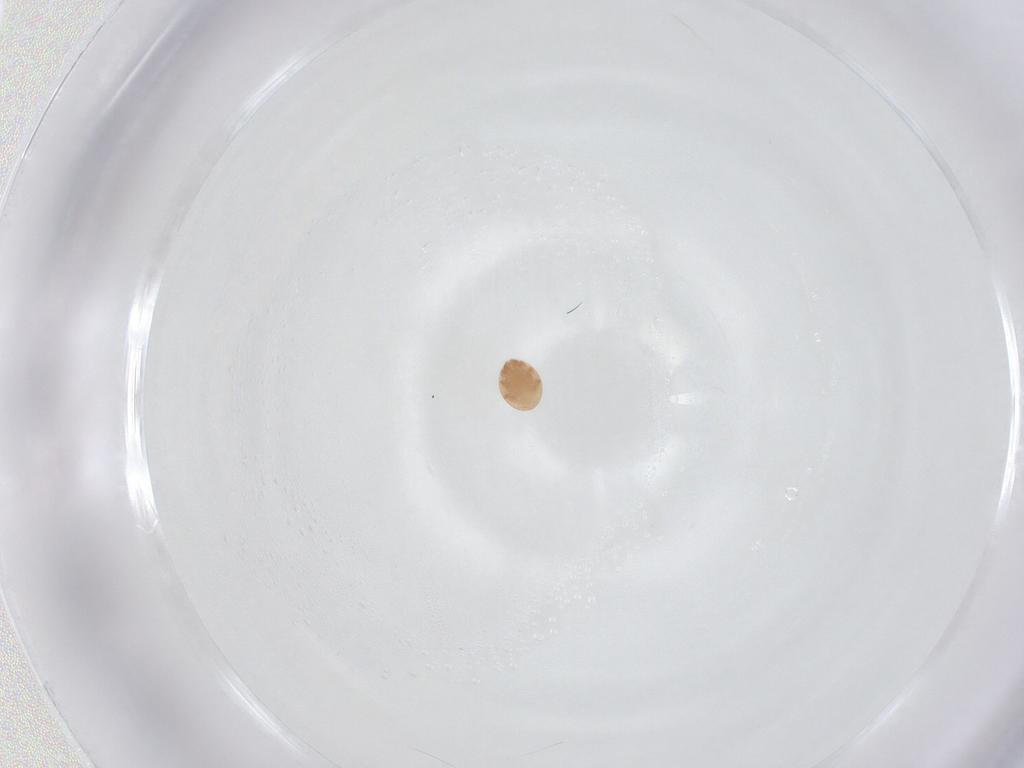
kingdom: Animalia
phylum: Arthropoda
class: Arachnida
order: Mesostigmata
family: Trematuridae
